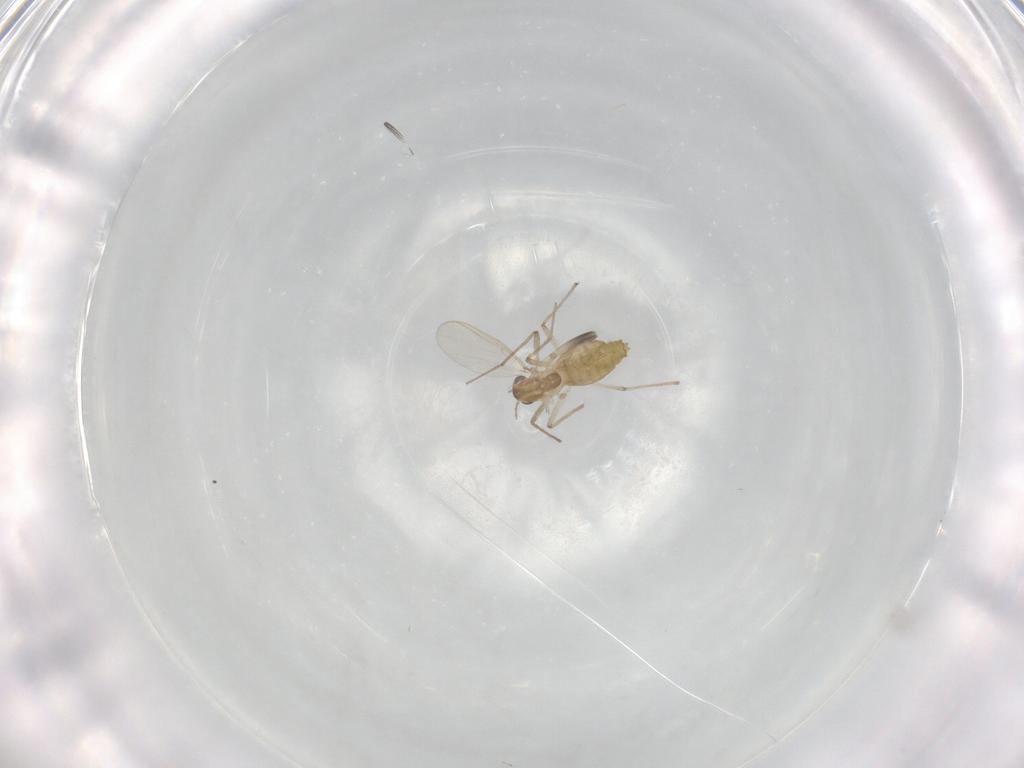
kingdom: Animalia
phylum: Arthropoda
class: Insecta
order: Diptera
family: Chironomidae
